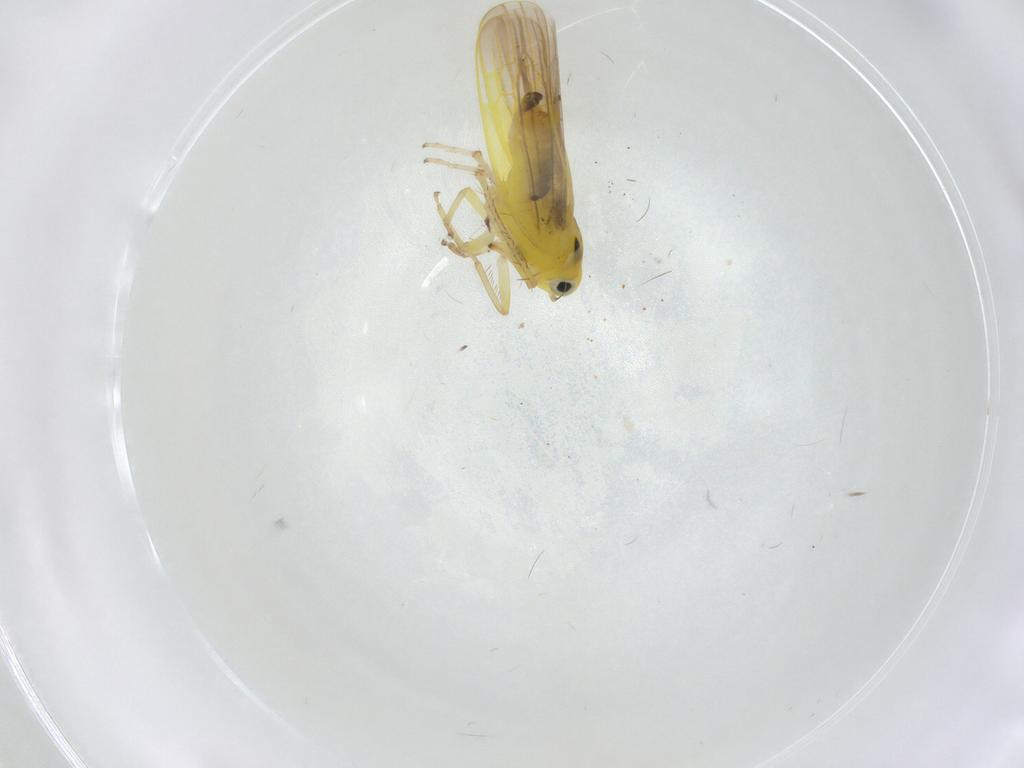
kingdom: Animalia
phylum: Arthropoda
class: Insecta
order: Hemiptera
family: Cicadellidae
